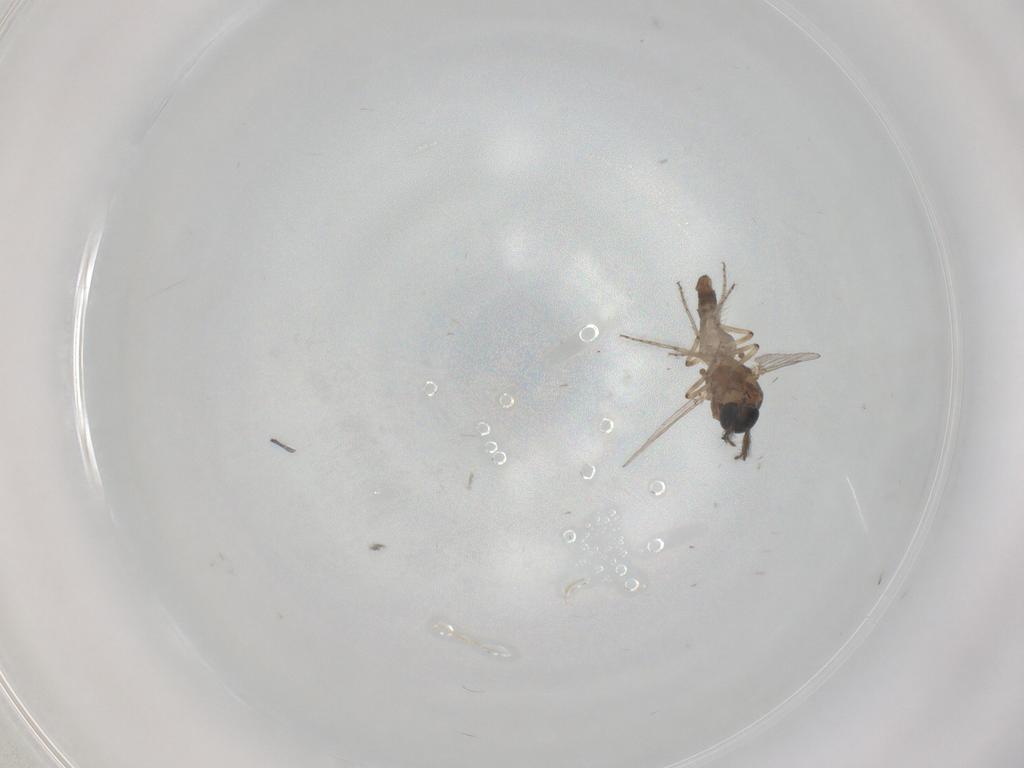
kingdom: Animalia
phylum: Arthropoda
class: Insecta
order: Diptera
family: Ceratopogonidae
